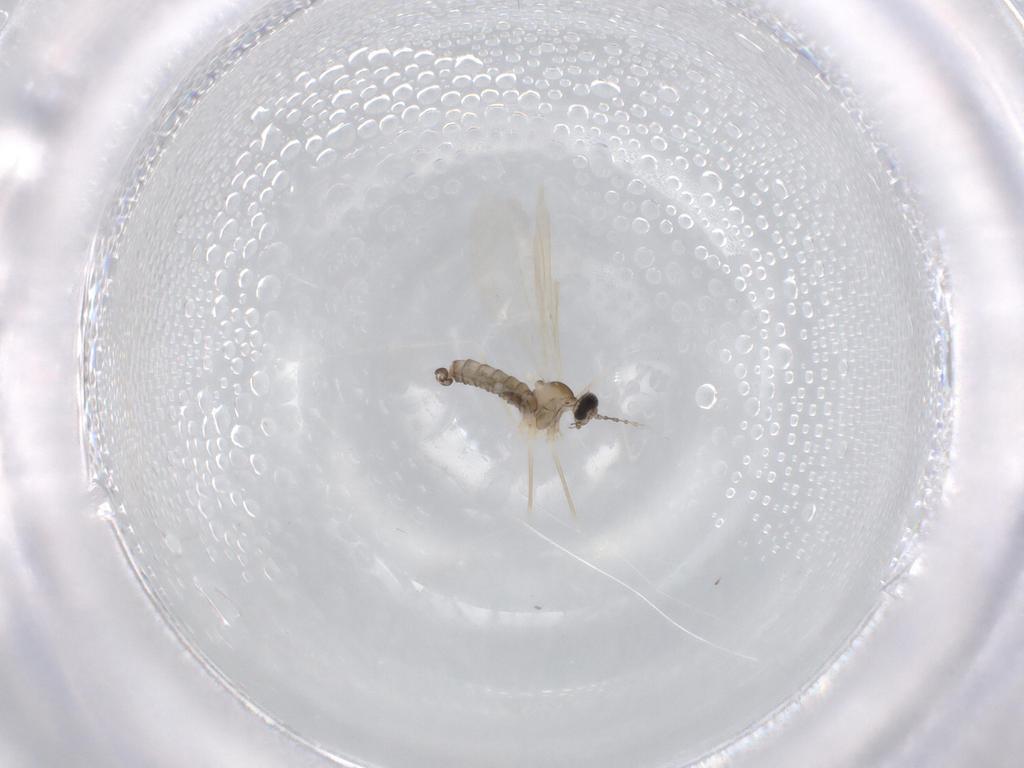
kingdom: Animalia
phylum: Arthropoda
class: Insecta
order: Diptera
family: Cecidomyiidae
